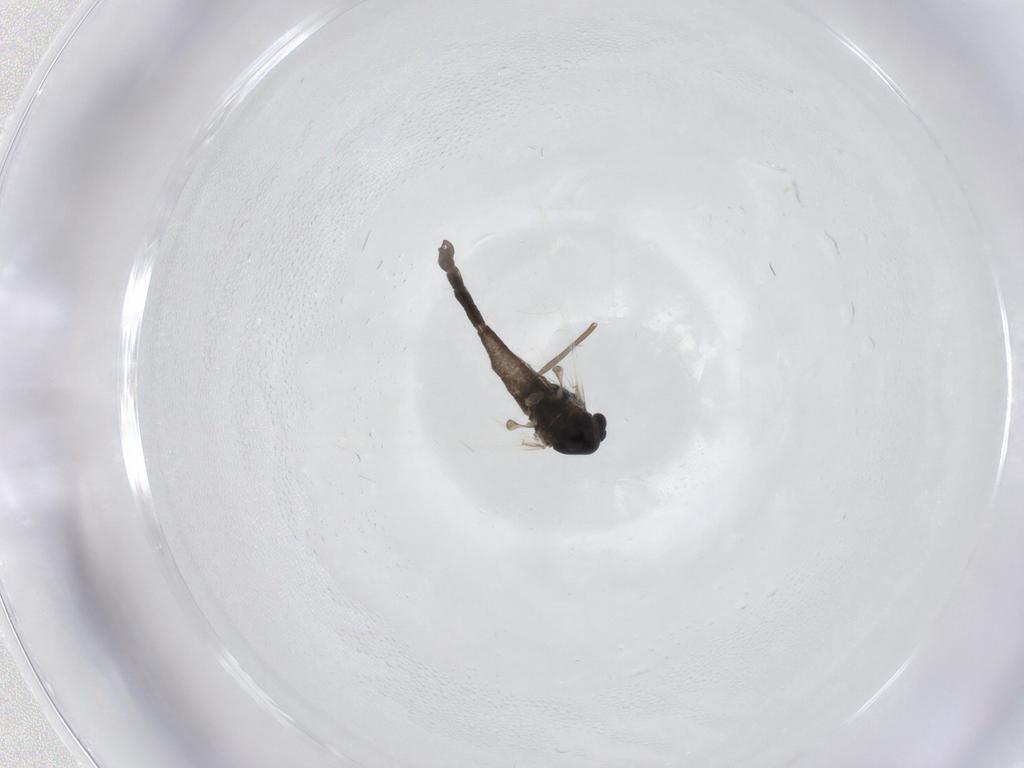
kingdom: Animalia
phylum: Arthropoda
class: Insecta
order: Diptera
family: Chironomidae
